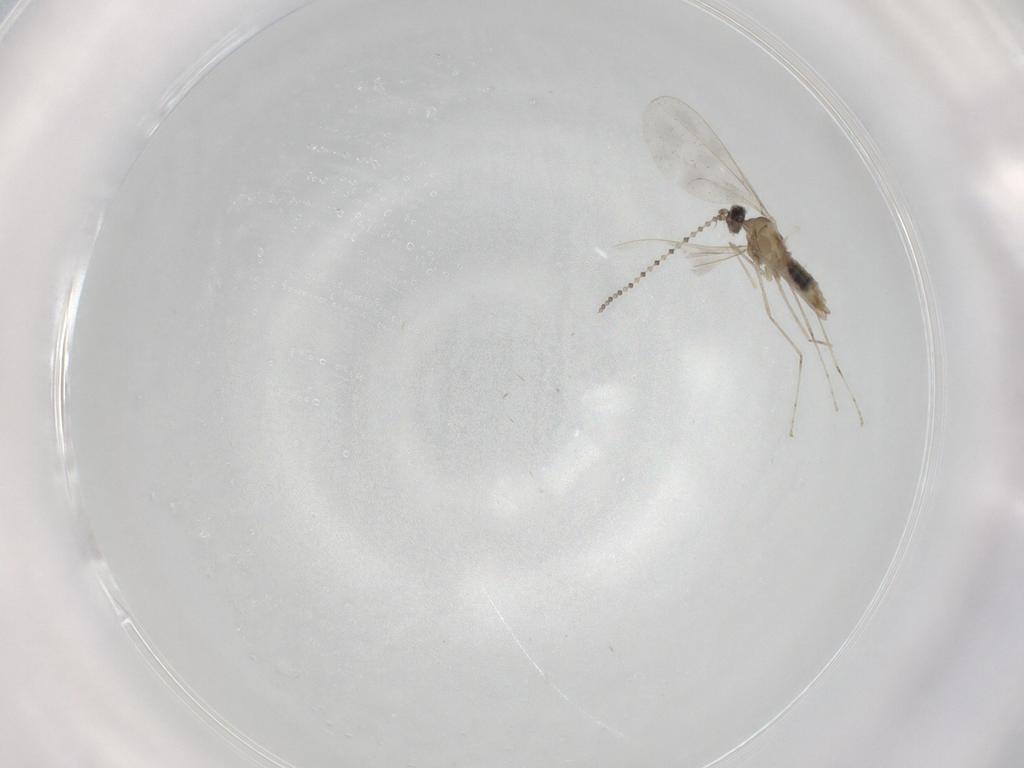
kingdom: Animalia
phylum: Arthropoda
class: Insecta
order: Diptera
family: Cecidomyiidae
